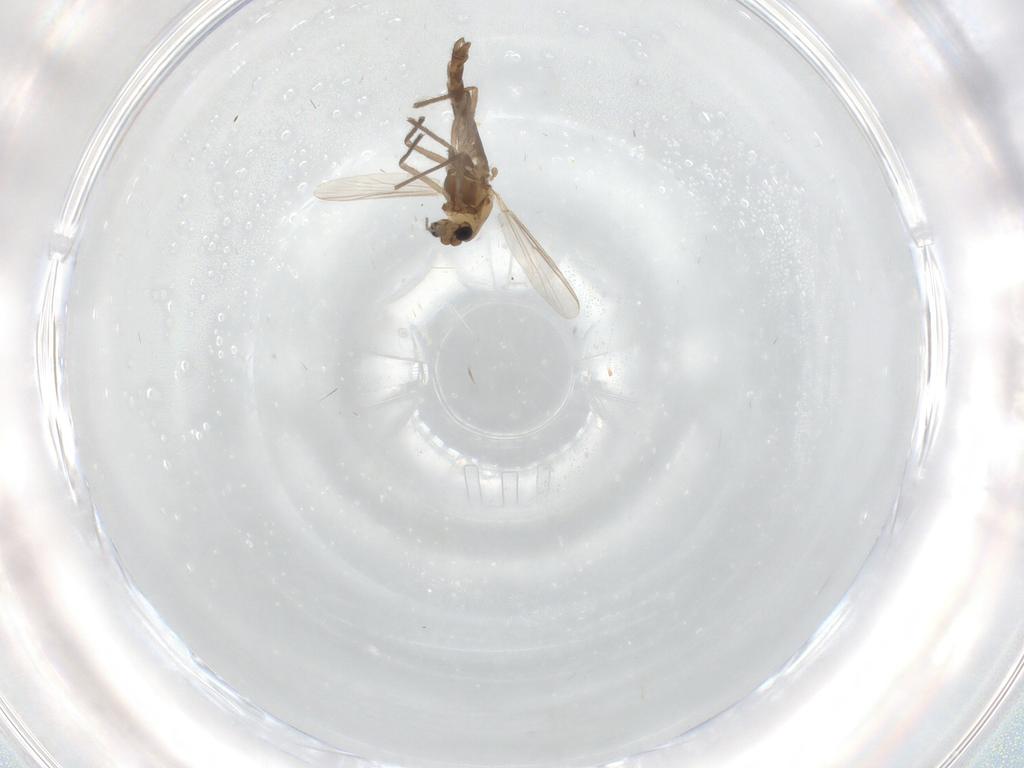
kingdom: Animalia
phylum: Arthropoda
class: Insecta
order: Diptera
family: Chironomidae
